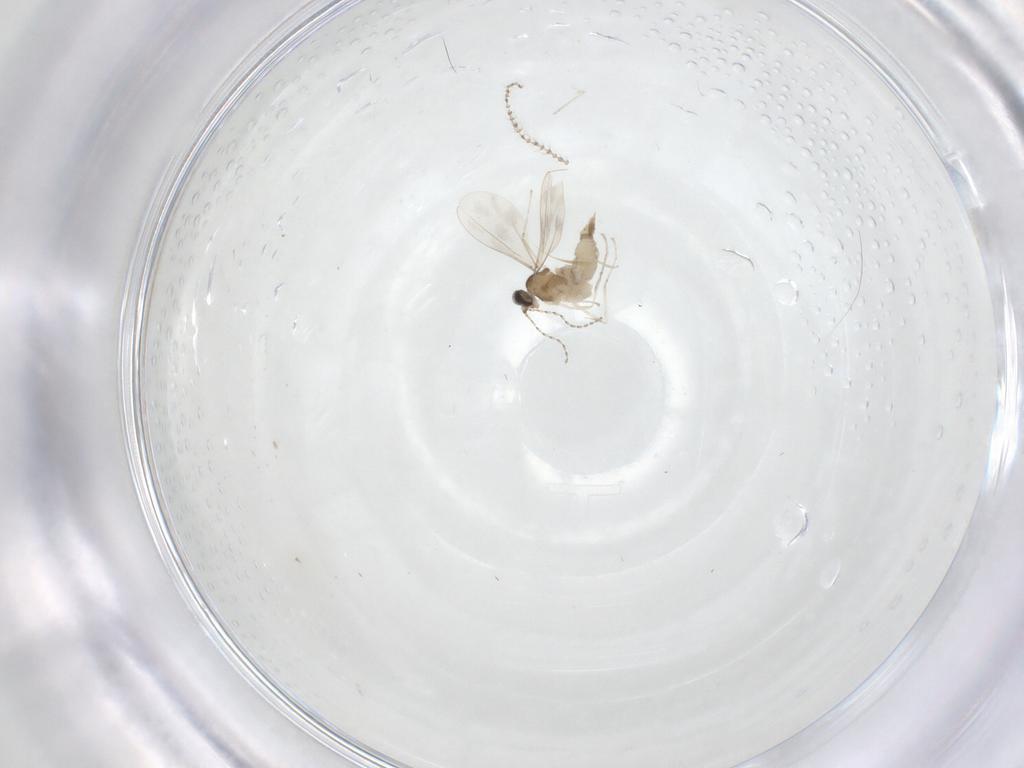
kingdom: Animalia
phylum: Arthropoda
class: Insecta
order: Diptera
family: Cecidomyiidae
